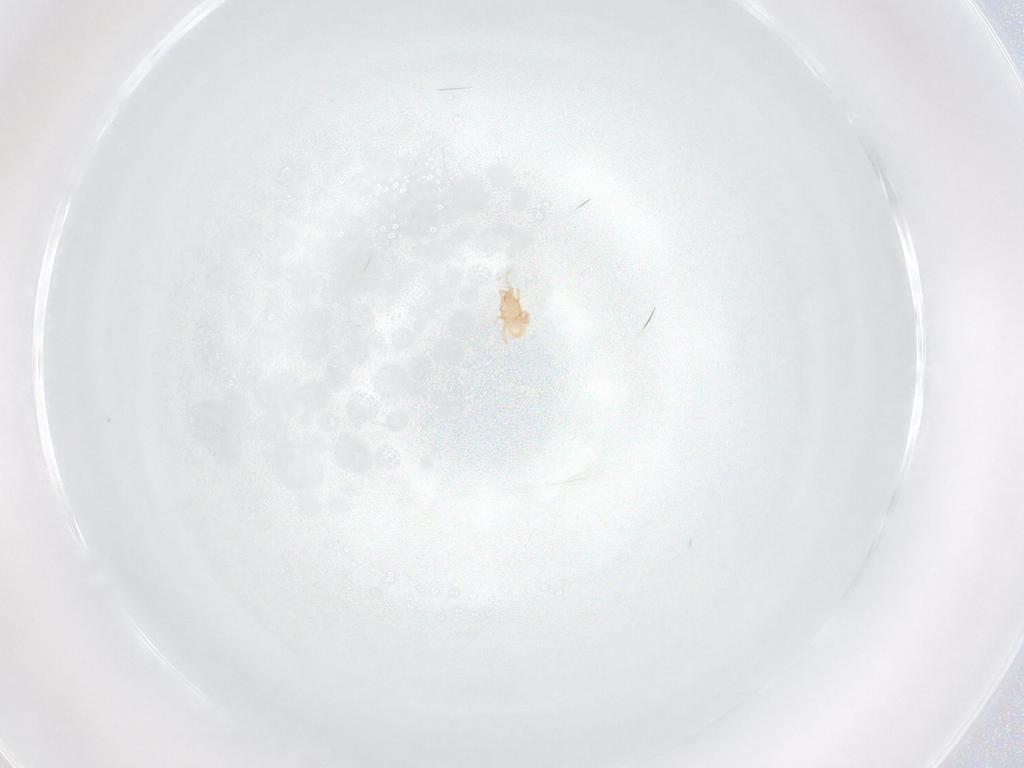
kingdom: Animalia
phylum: Arthropoda
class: Arachnida
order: Mesostigmata
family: Ascidae
